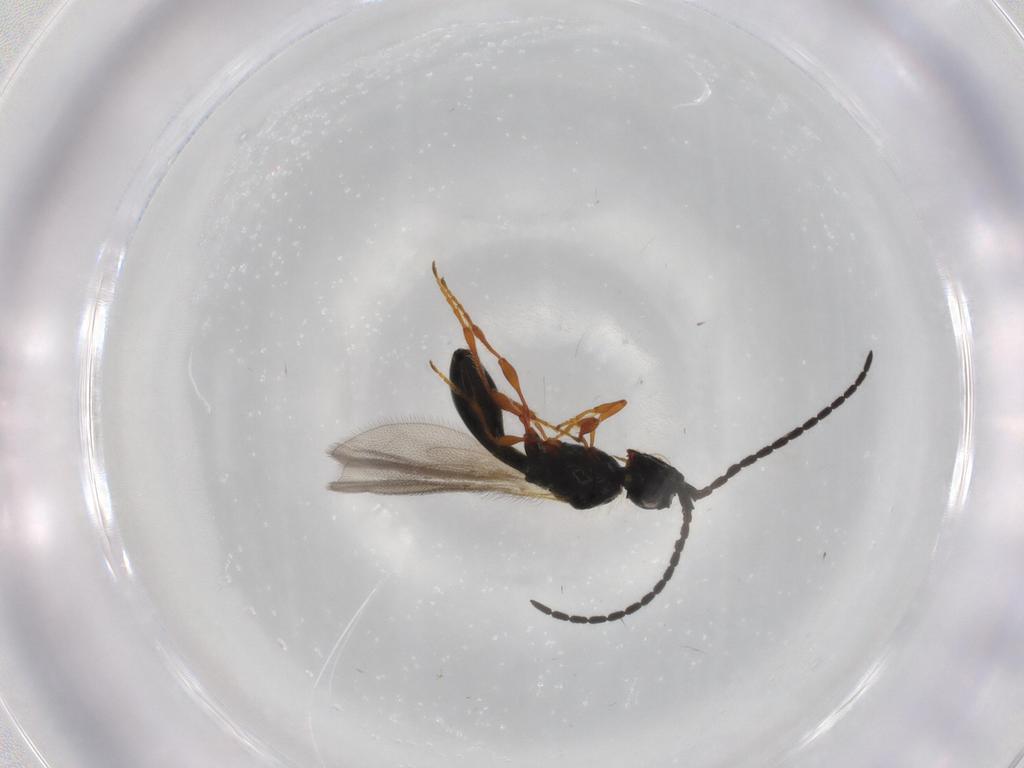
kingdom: Animalia
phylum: Arthropoda
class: Insecta
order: Hymenoptera
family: Diapriidae
